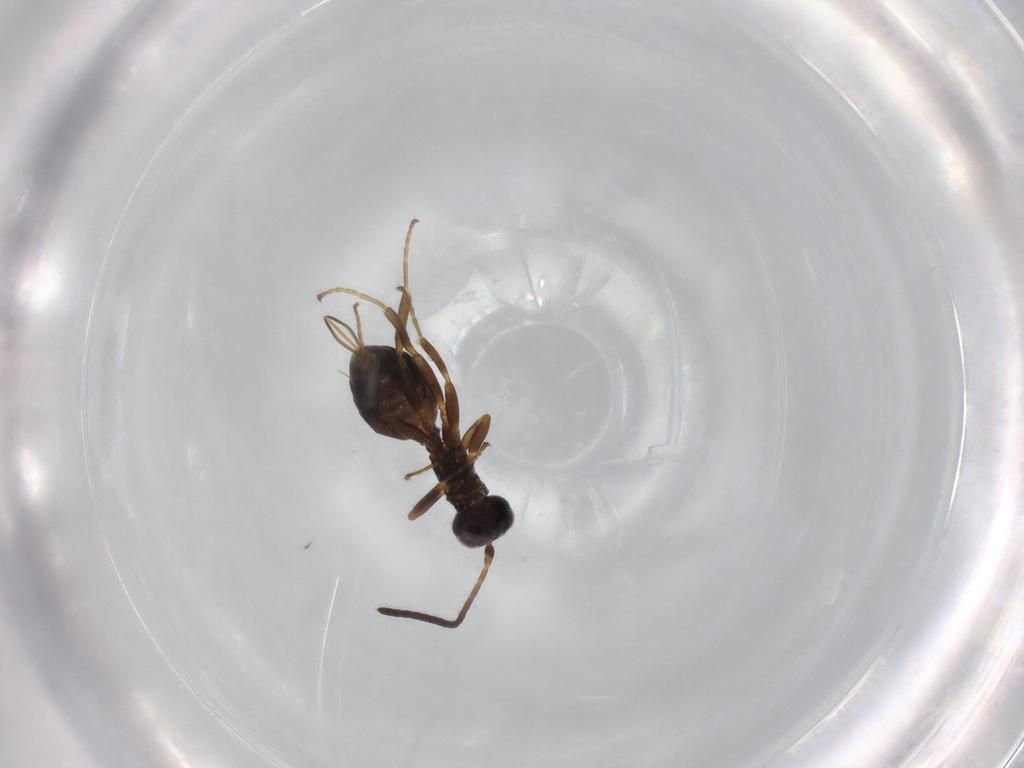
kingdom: Animalia
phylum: Arthropoda
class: Insecta
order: Hymenoptera
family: Ichneumonidae
